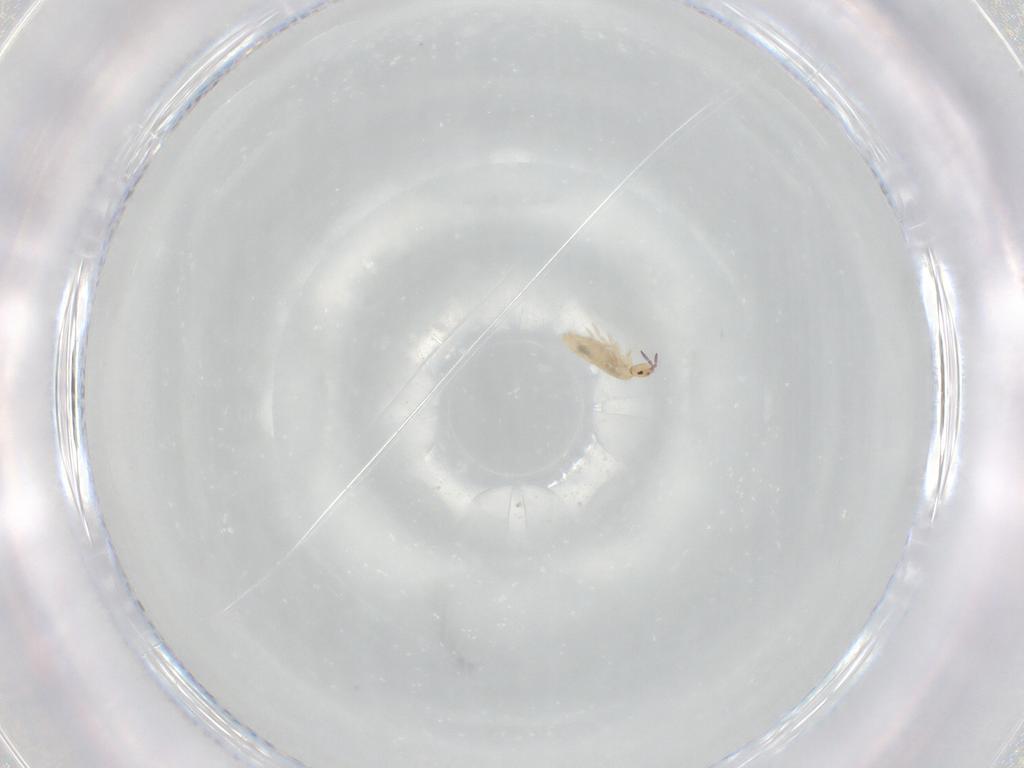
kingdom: Animalia
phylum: Arthropoda
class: Collembola
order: Entomobryomorpha
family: Entomobryidae
